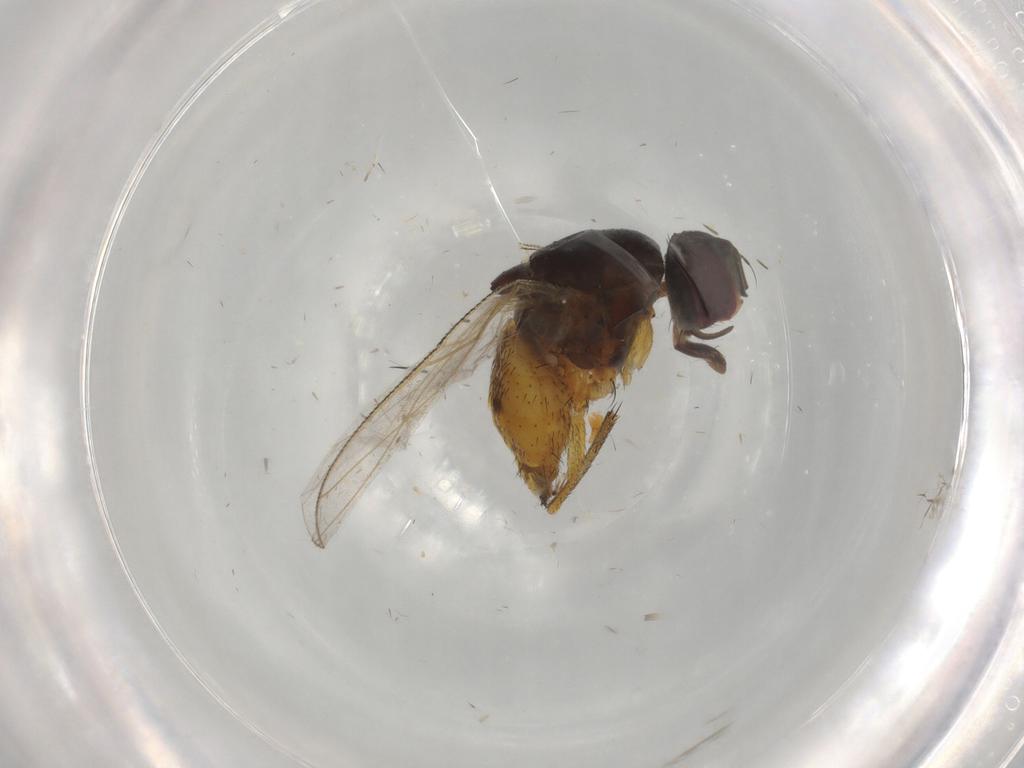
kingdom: Animalia
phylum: Arthropoda
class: Insecta
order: Diptera
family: Muscidae
